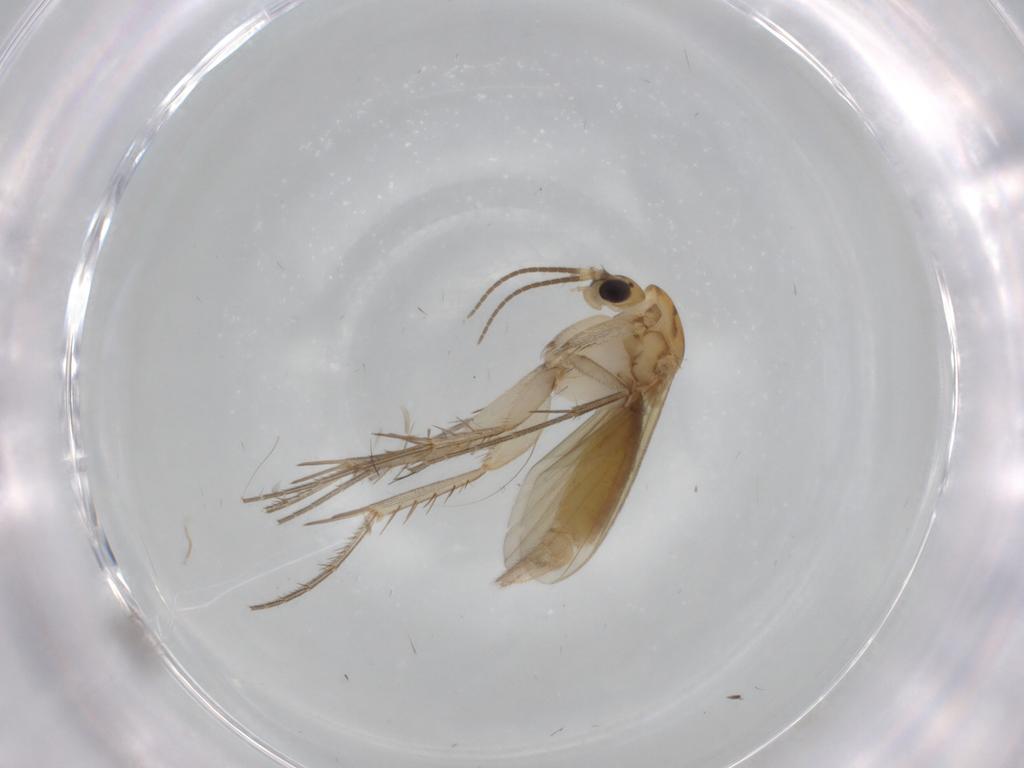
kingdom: Animalia
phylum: Arthropoda
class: Insecta
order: Diptera
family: Mycetophilidae
